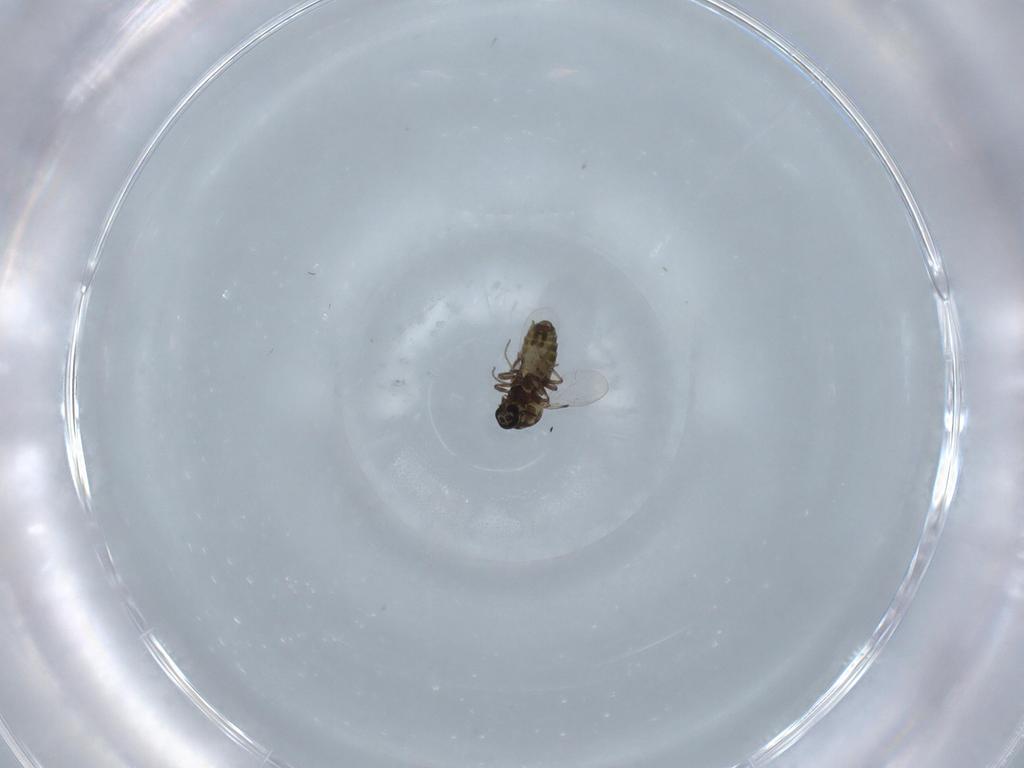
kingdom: Animalia
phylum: Arthropoda
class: Insecta
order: Diptera
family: Ceratopogonidae
